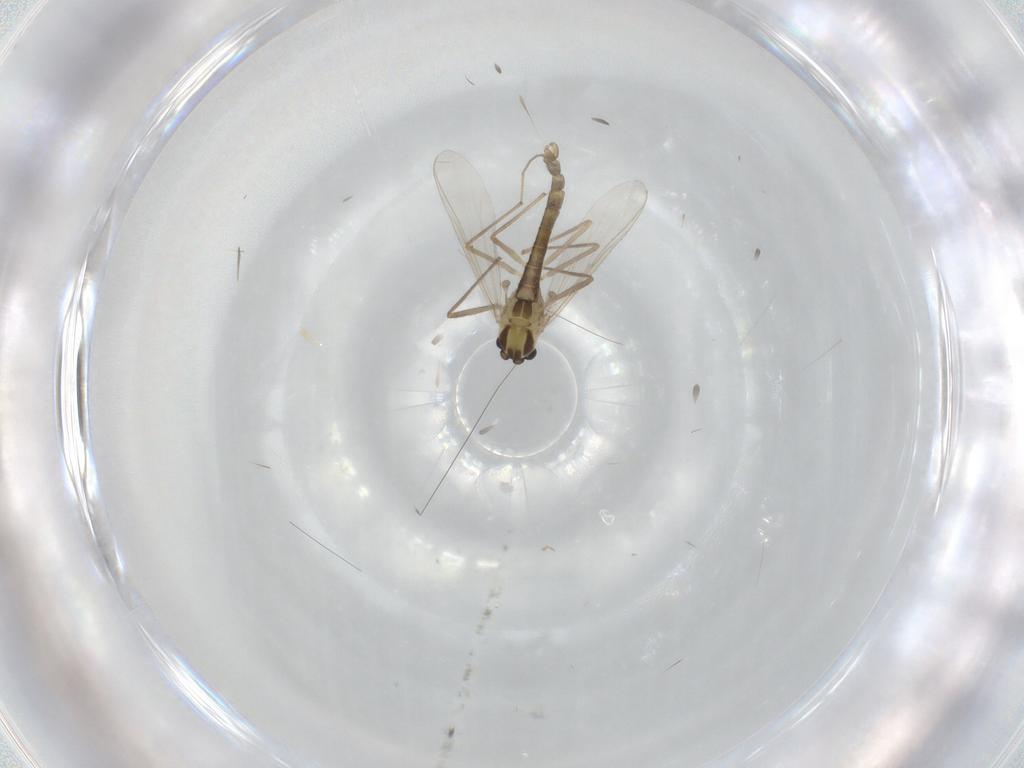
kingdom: Animalia
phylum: Arthropoda
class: Insecta
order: Diptera
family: Chironomidae
